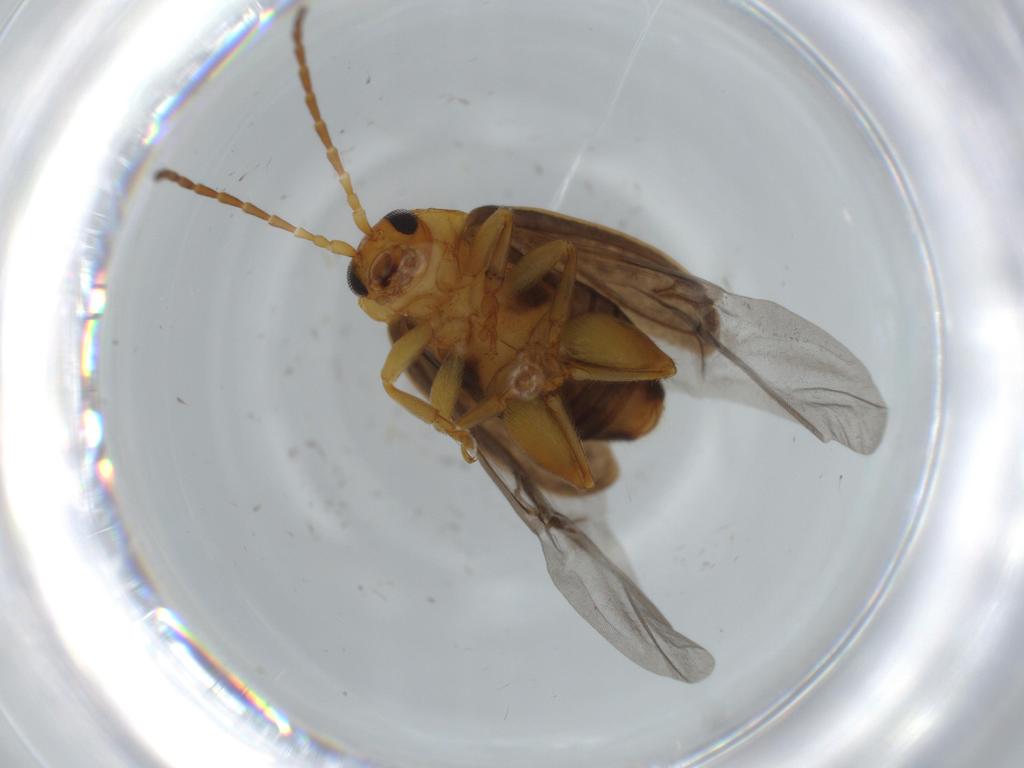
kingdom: Animalia
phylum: Arthropoda
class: Insecta
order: Coleoptera
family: Chrysomelidae
